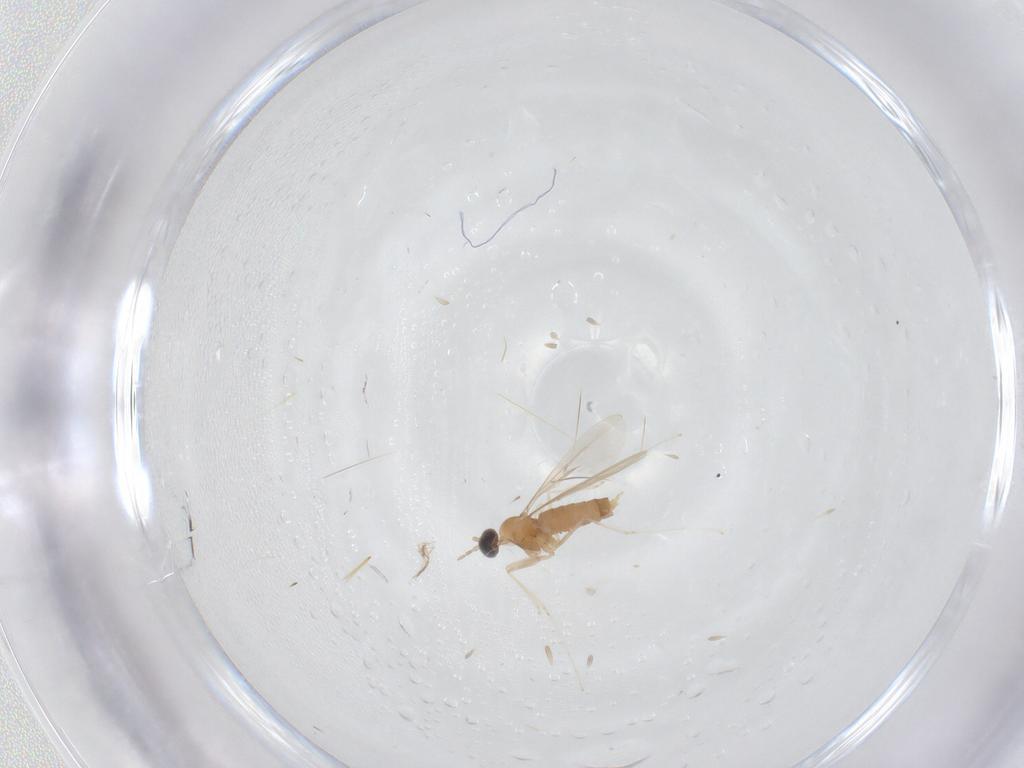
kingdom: Animalia
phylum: Arthropoda
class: Insecta
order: Diptera
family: Cecidomyiidae
